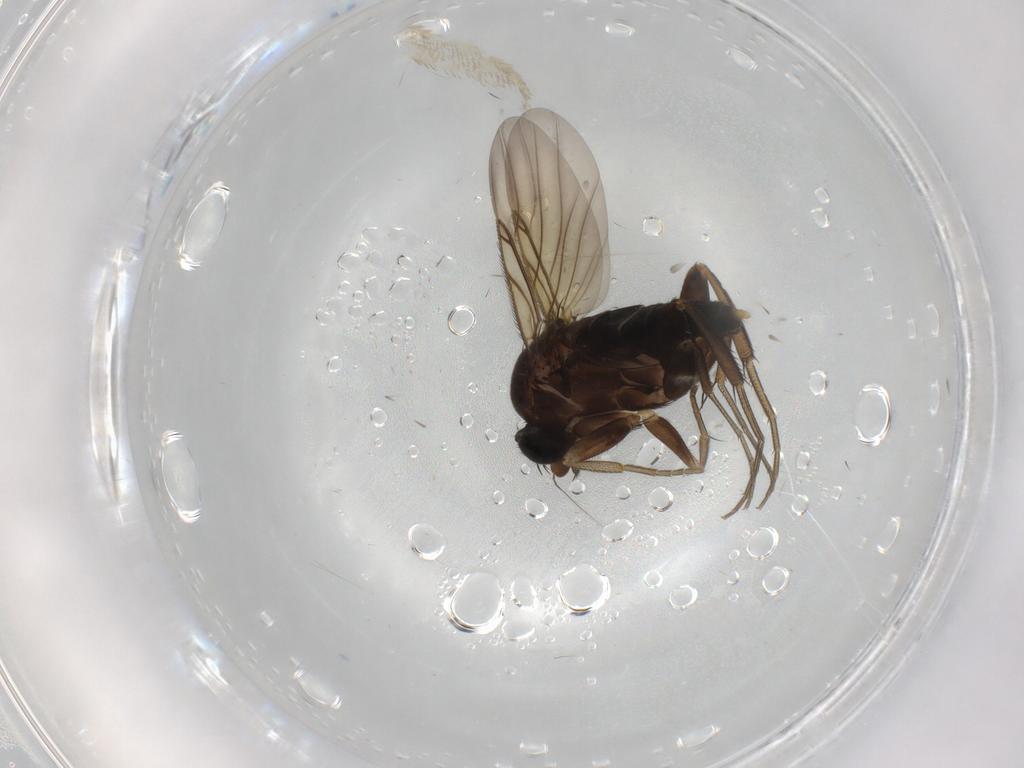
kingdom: Animalia
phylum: Arthropoda
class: Insecta
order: Diptera
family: Phoridae
